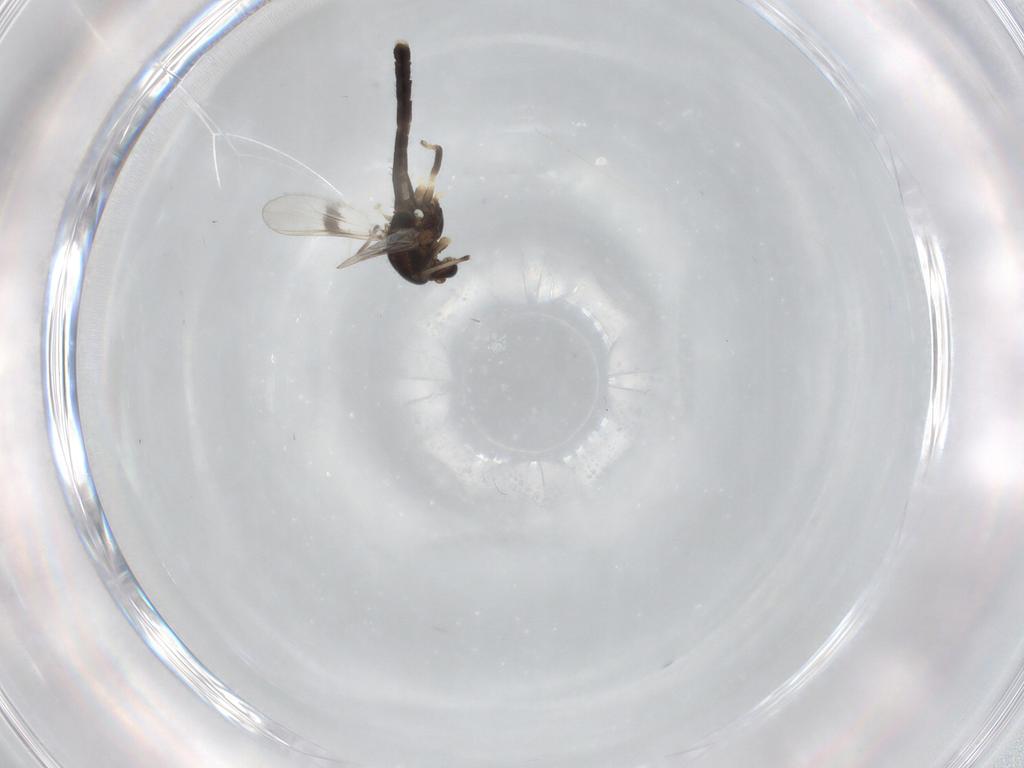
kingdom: Animalia
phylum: Arthropoda
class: Insecta
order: Diptera
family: Chironomidae
